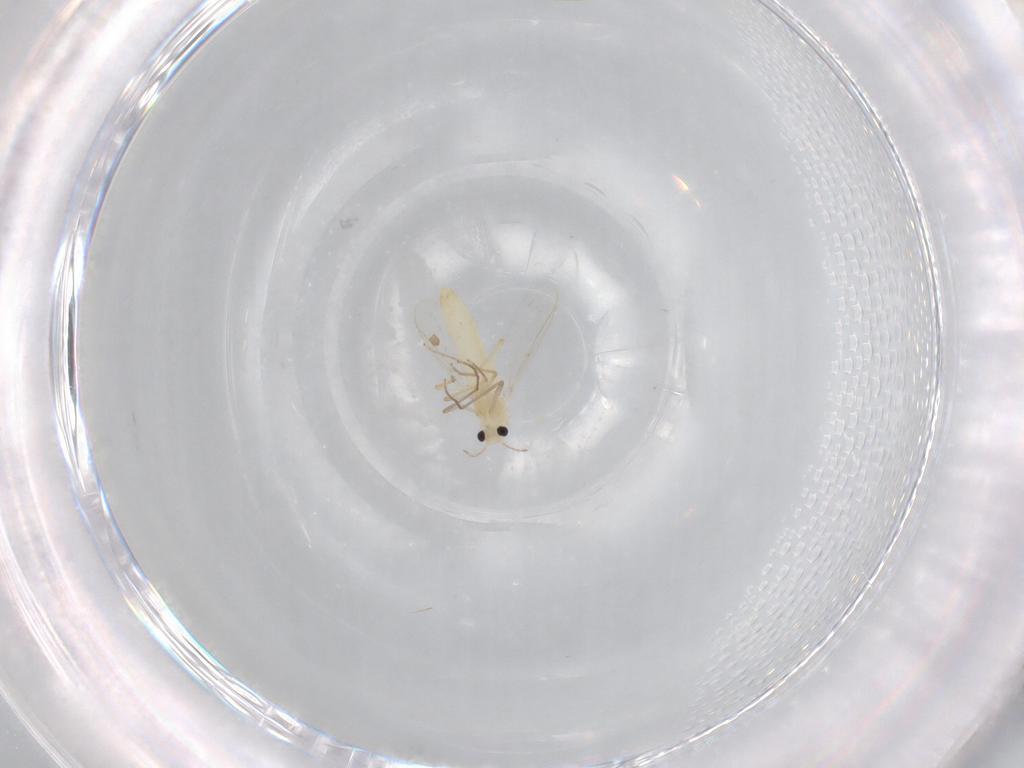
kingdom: Animalia
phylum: Arthropoda
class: Insecta
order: Diptera
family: Chironomidae
